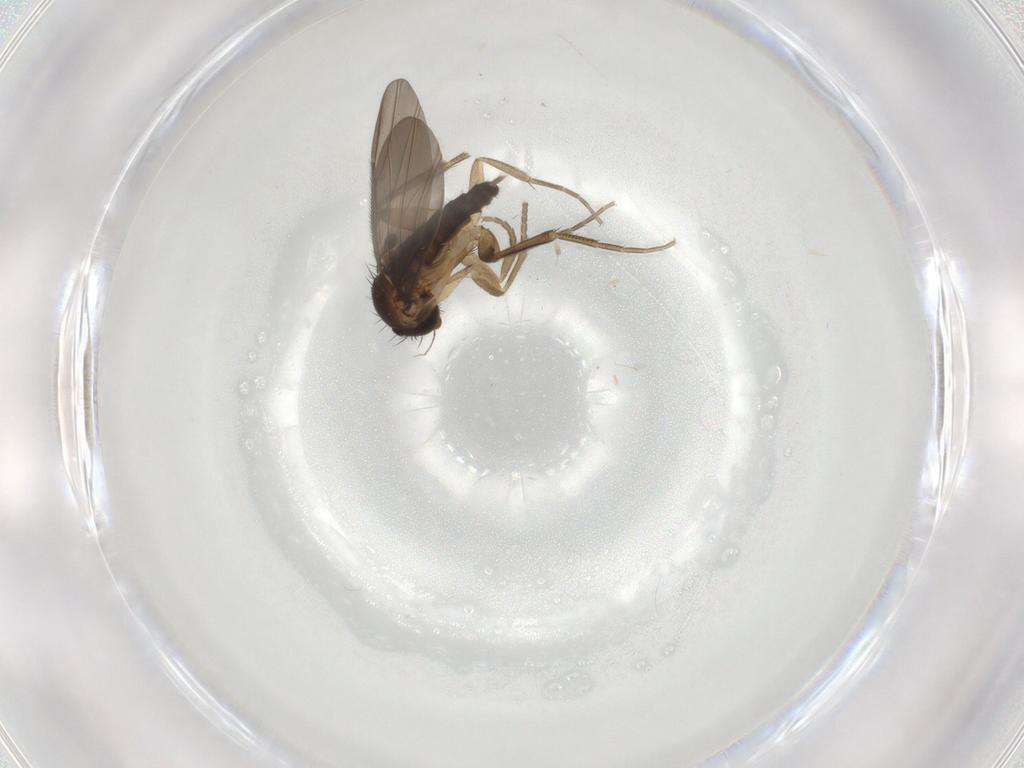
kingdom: Animalia
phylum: Arthropoda
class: Insecta
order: Diptera
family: Phoridae
